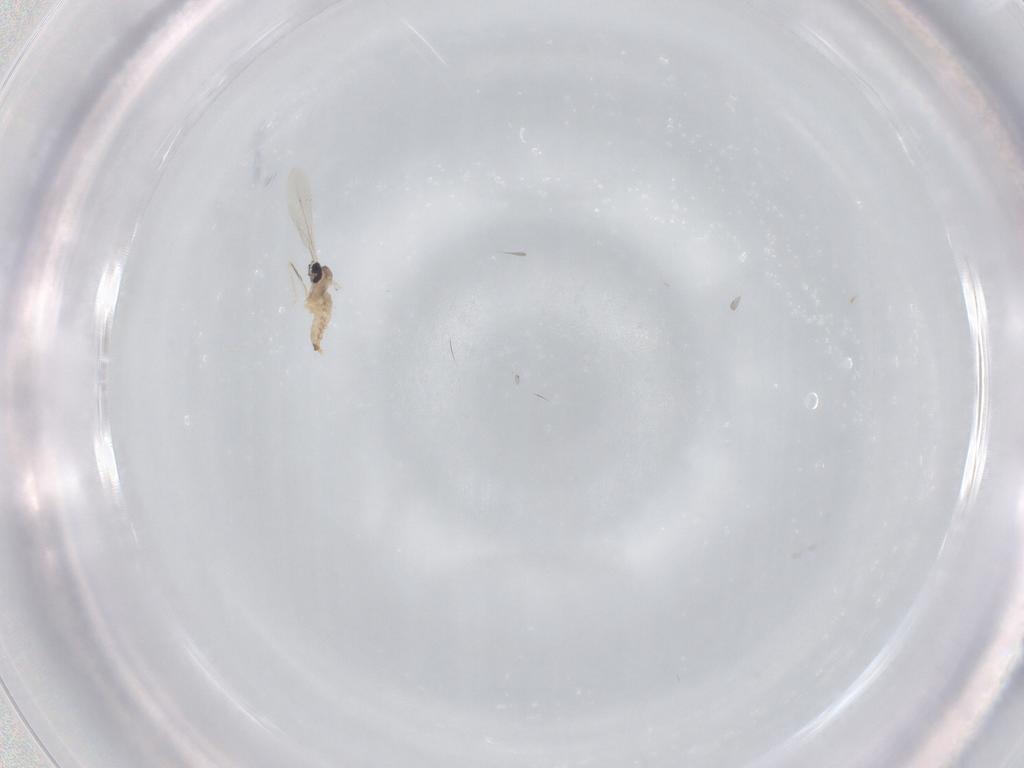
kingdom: Animalia
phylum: Arthropoda
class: Insecta
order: Diptera
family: Cecidomyiidae
